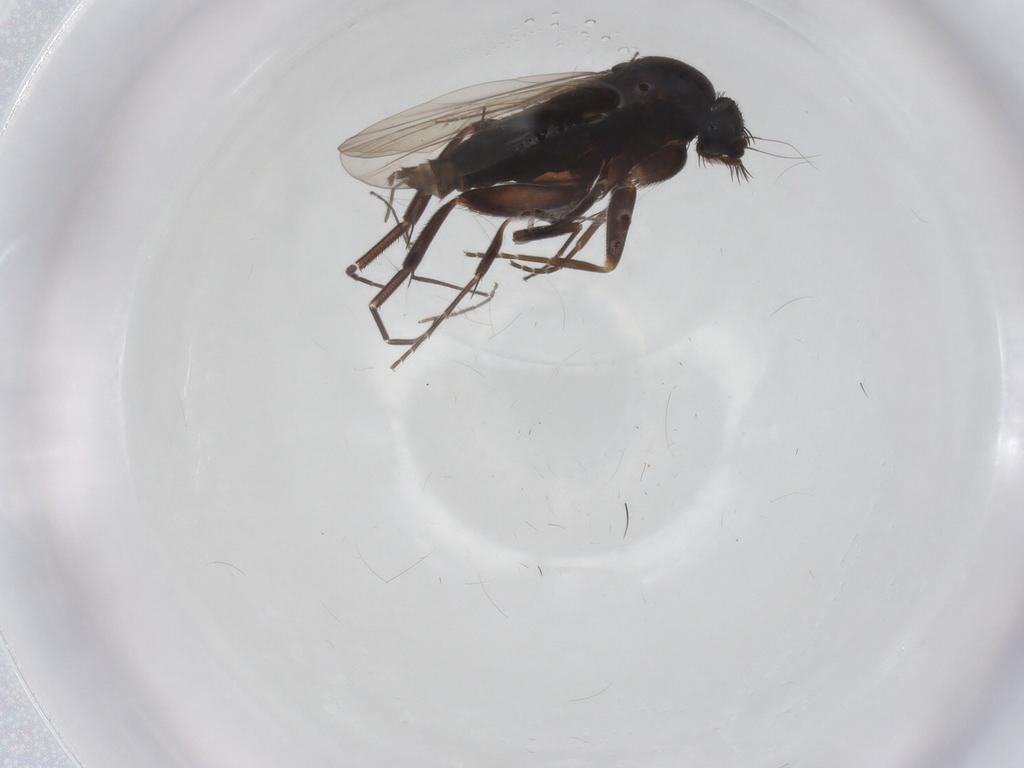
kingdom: Animalia
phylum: Arthropoda
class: Insecta
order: Diptera
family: Phoridae
